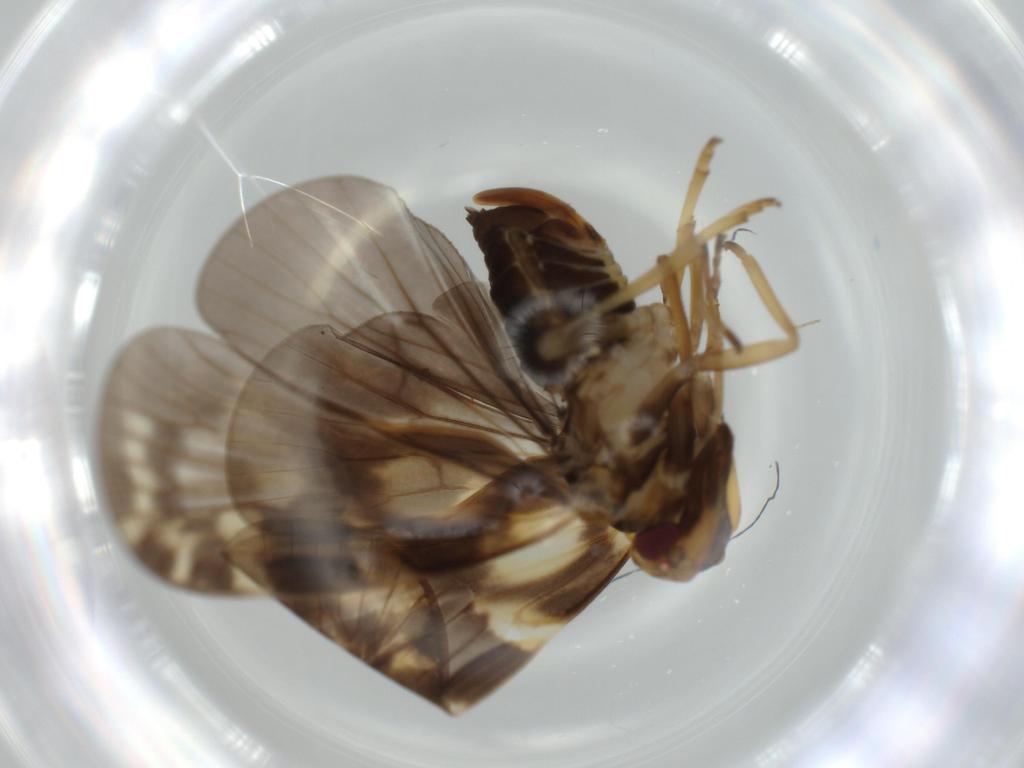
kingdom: Animalia
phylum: Arthropoda
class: Insecta
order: Hemiptera
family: Cixiidae
